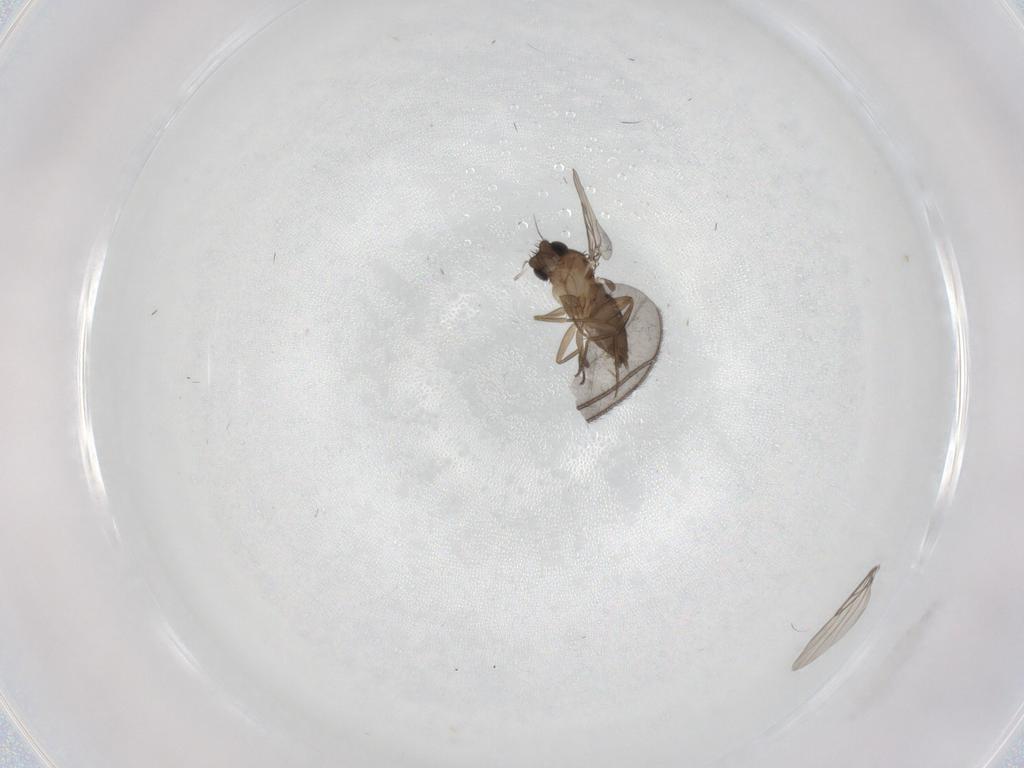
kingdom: Animalia
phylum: Arthropoda
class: Insecta
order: Diptera
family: Phoridae
